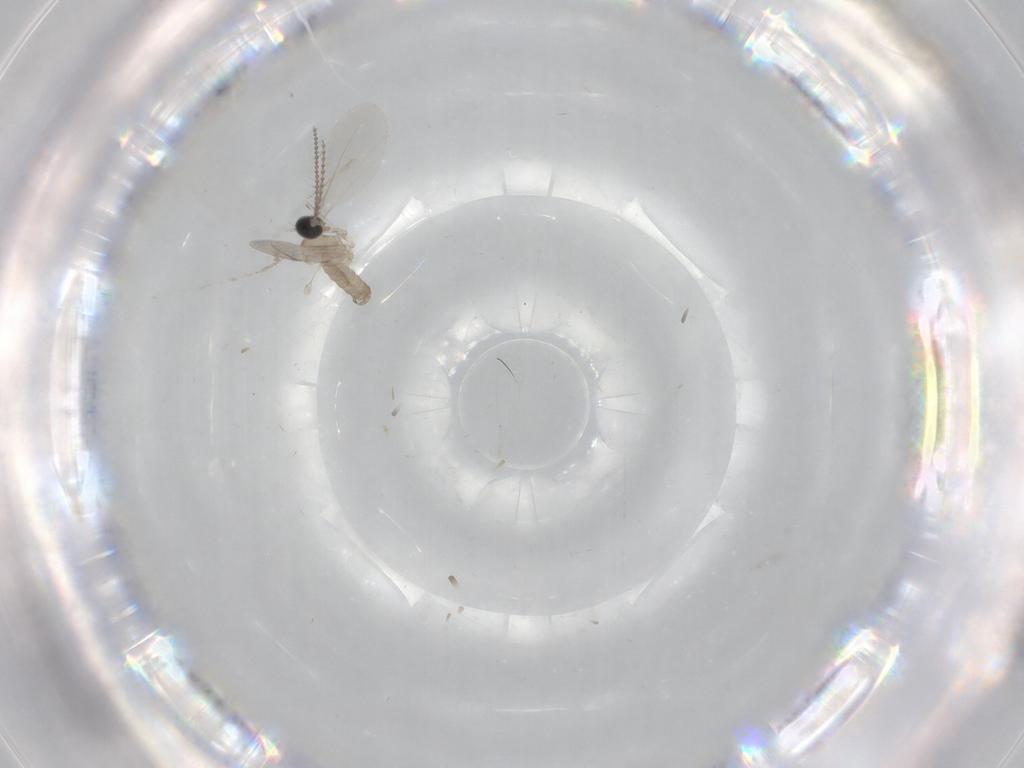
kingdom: Animalia
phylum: Arthropoda
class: Insecta
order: Diptera
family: Cecidomyiidae
